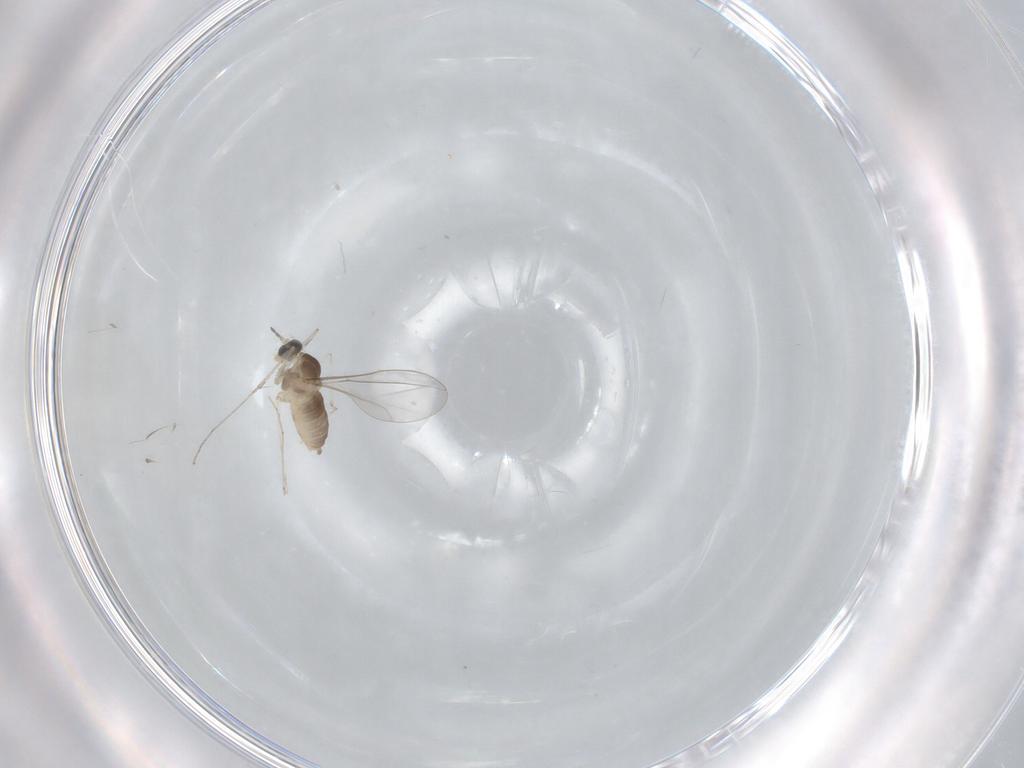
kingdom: Animalia
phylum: Arthropoda
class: Insecta
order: Diptera
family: Cecidomyiidae
